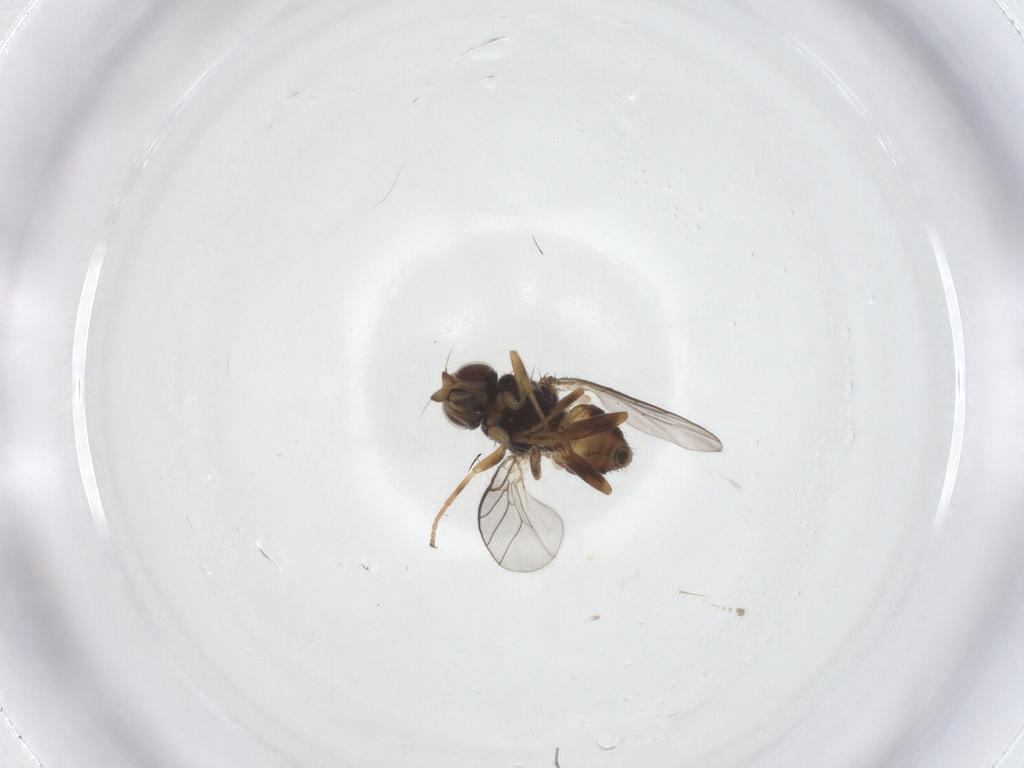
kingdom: Animalia
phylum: Arthropoda
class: Insecta
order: Diptera
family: Chloropidae
